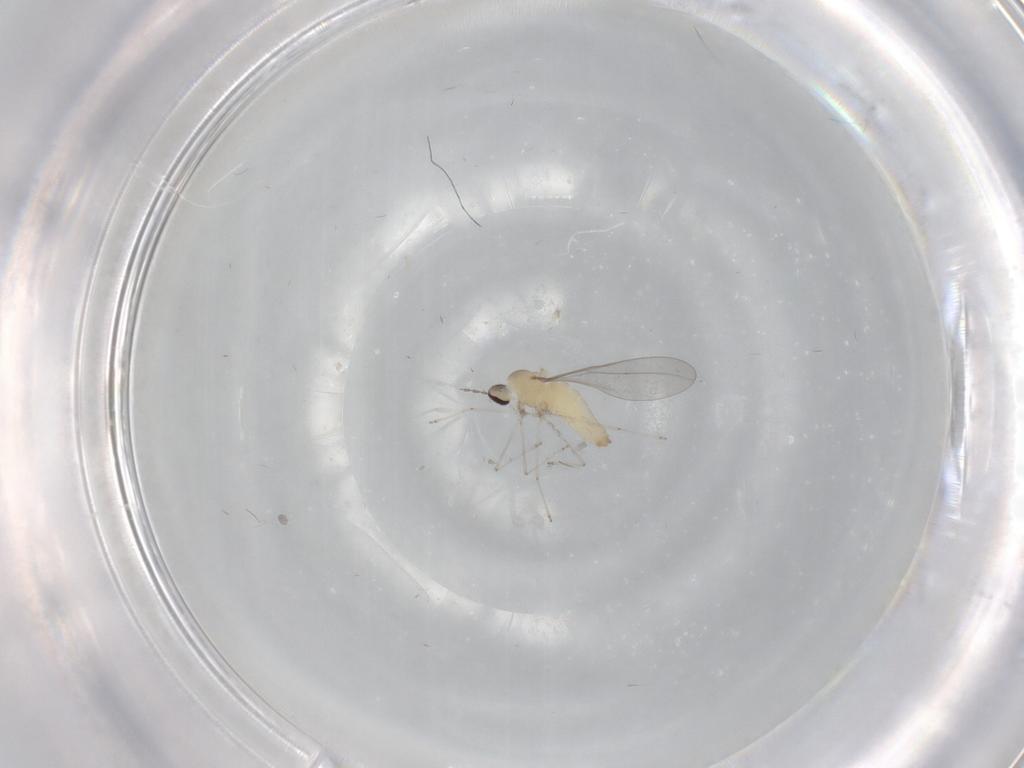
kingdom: Animalia
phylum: Arthropoda
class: Insecta
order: Diptera
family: Cecidomyiidae
